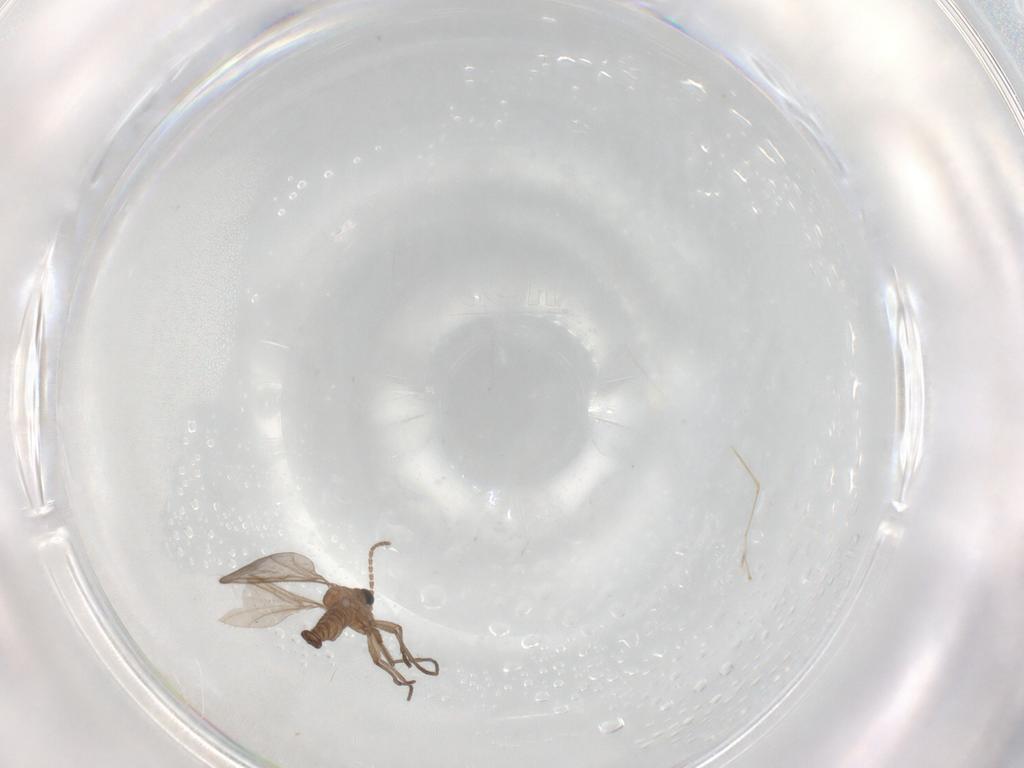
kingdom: Animalia
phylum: Arthropoda
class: Insecta
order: Diptera
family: Cecidomyiidae
